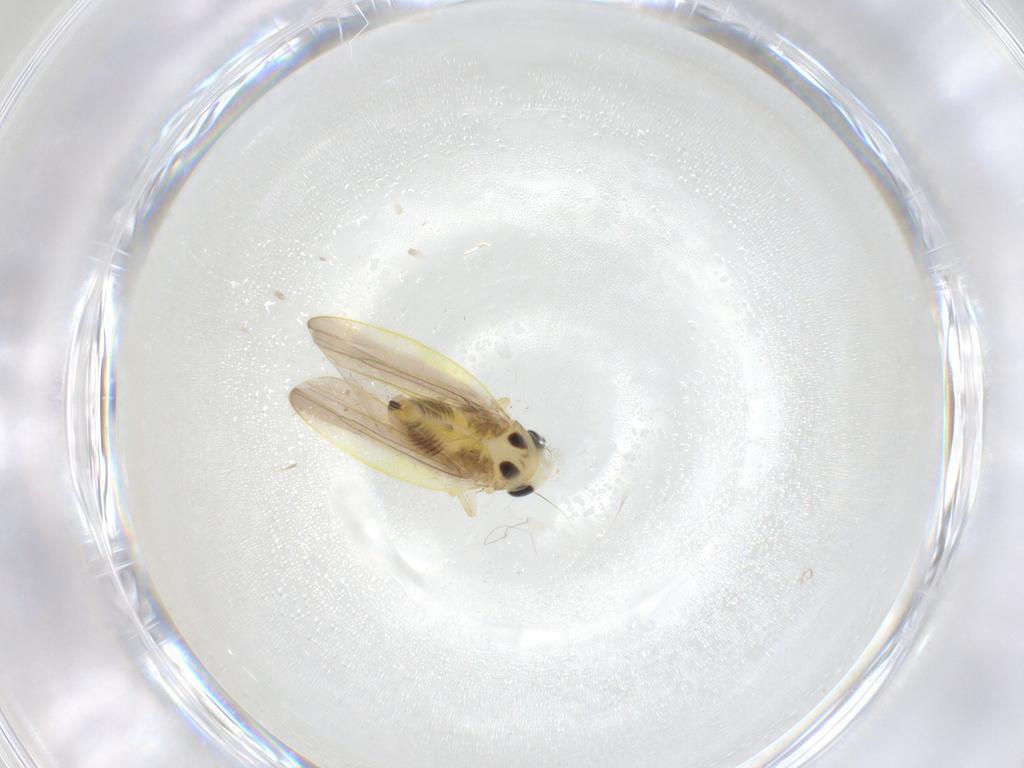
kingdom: Animalia
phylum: Arthropoda
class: Insecta
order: Hemiptera
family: Cicadellidae
